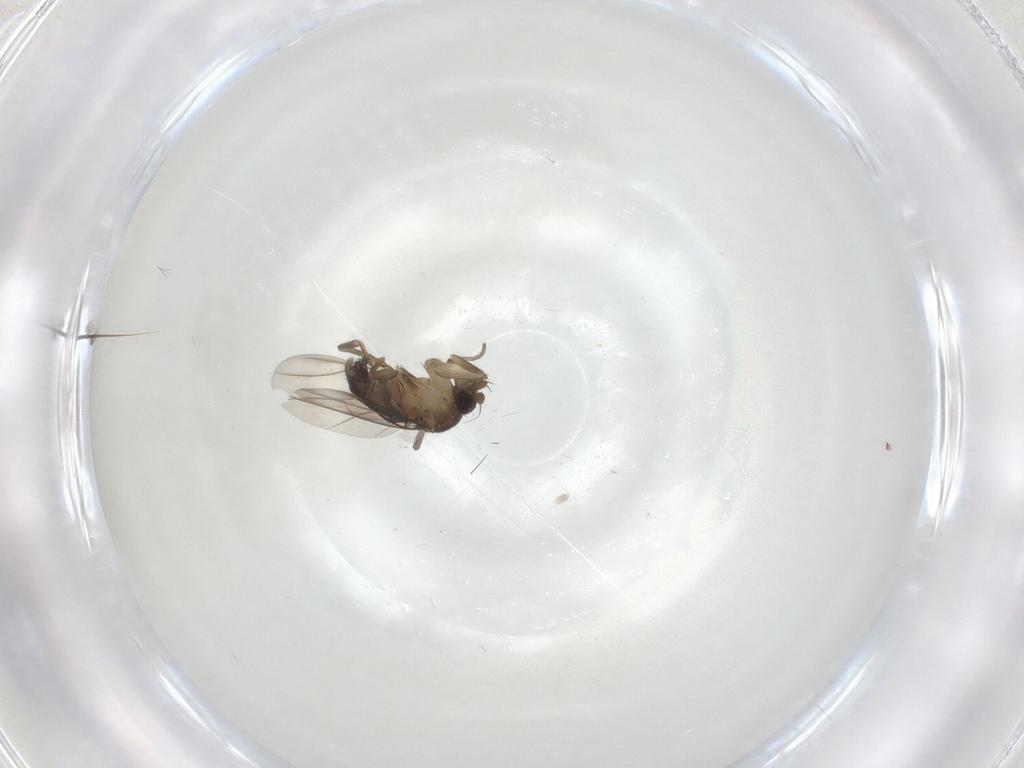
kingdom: Animalia
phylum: Arthropoda
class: Insecta
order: Diptera
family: Phoridae
